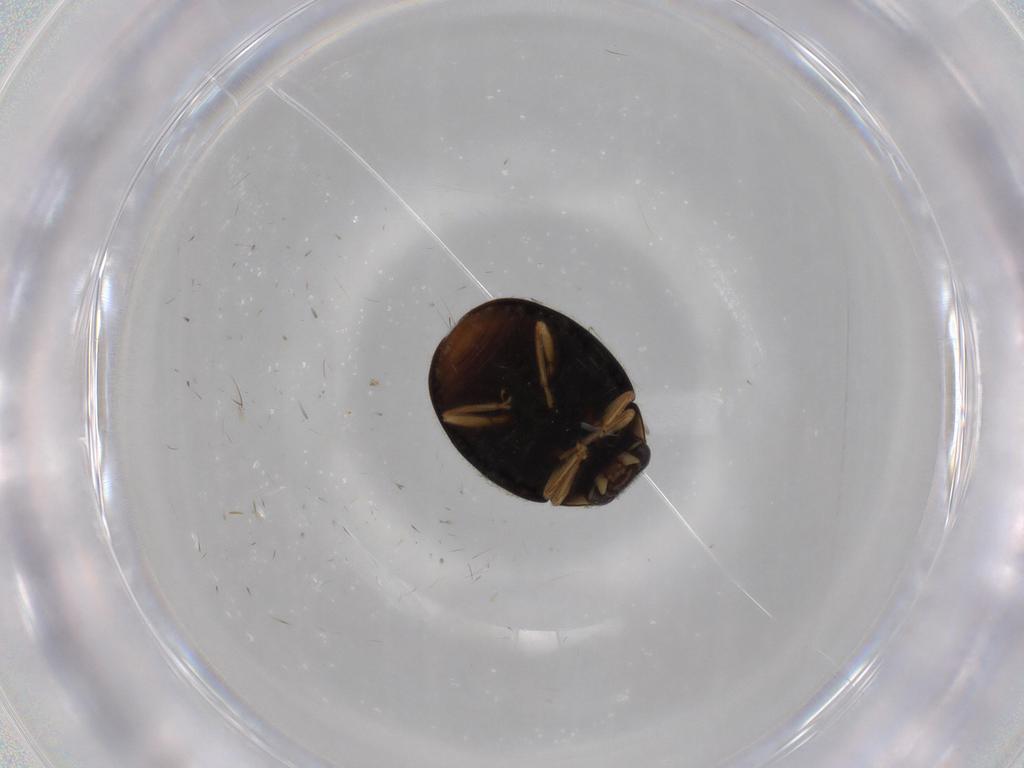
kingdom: Animalia
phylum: Arthropoda
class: Insecta
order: Coleoptera
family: Coccinellidae
